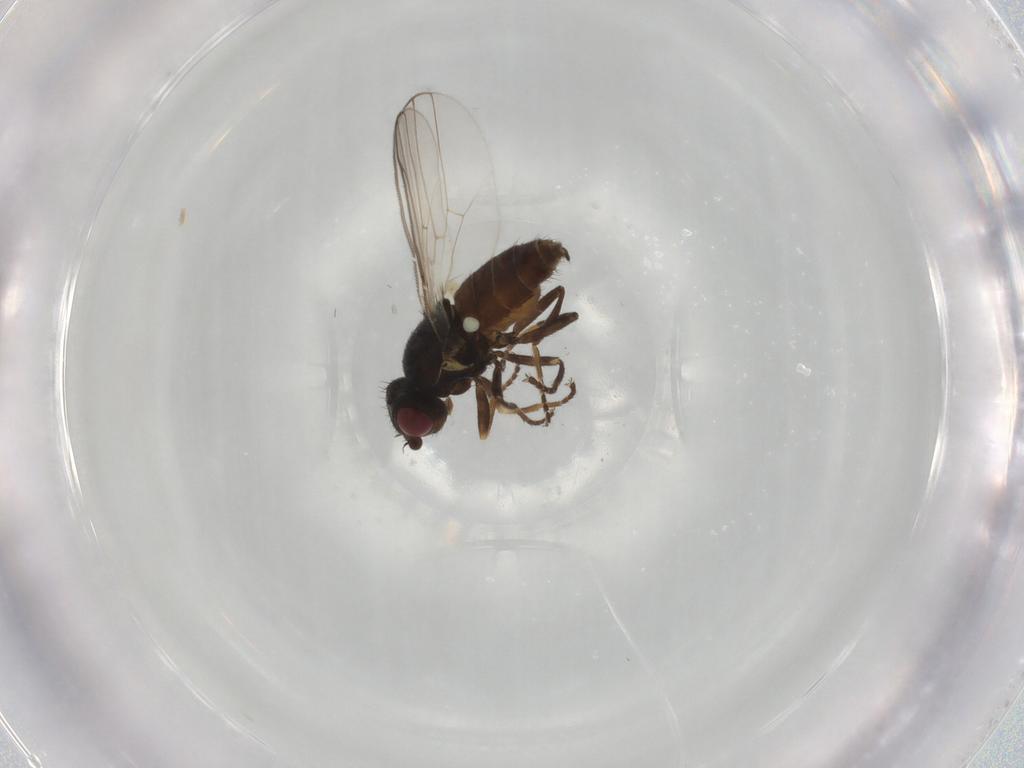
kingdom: Animalia
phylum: Arthropoda
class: Insecta
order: Diptera
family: Chloropidae
